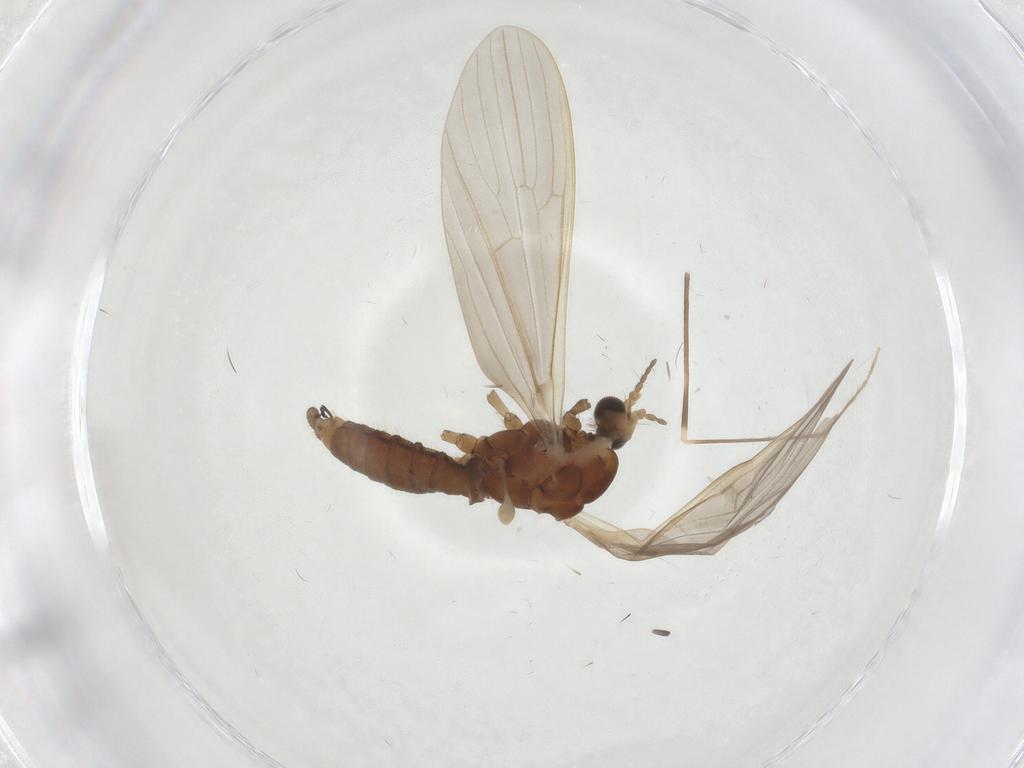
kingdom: Animalia
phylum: Arthropoda
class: Insecta
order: Diptera
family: Limoniidae
